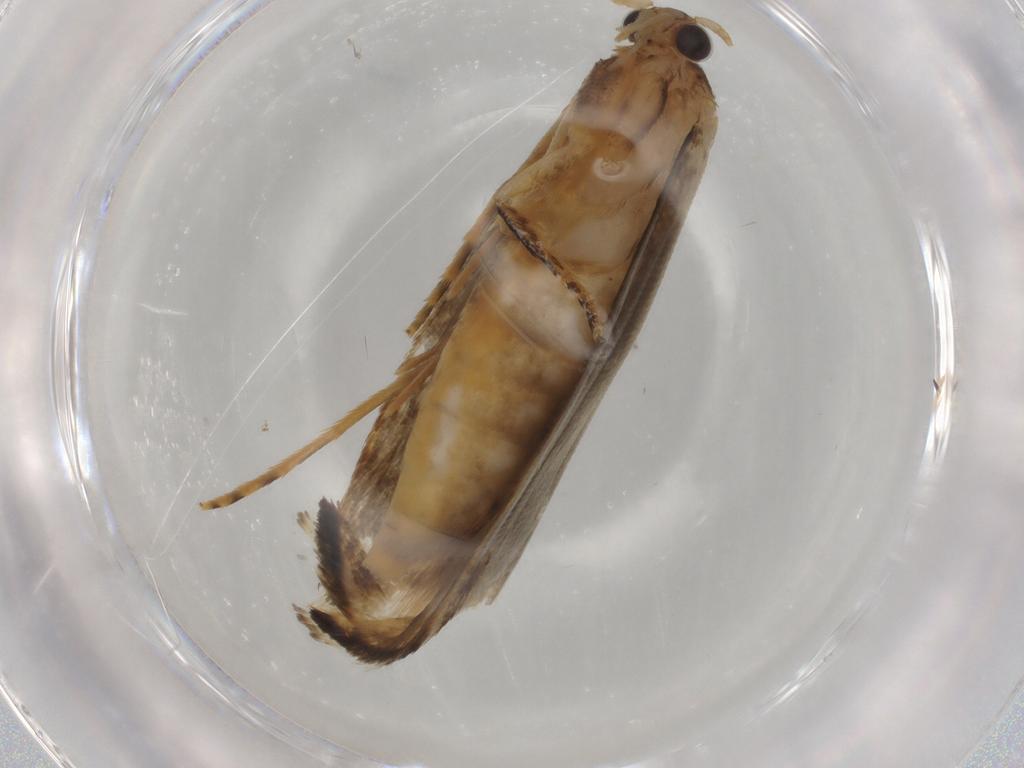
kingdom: Animalia
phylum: Arthropoda
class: Insecta
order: Lepidoptera
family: Tineidae
